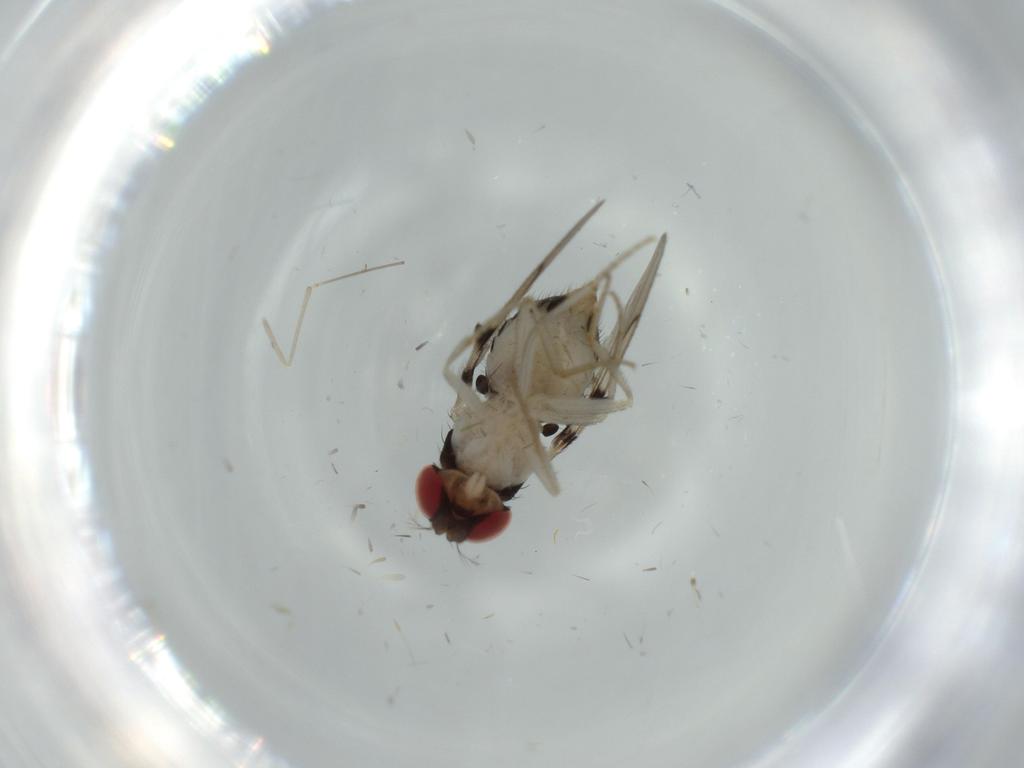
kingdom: Animalia
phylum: Arthropoda
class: Insecta
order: Diptera
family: Drosophilidae
